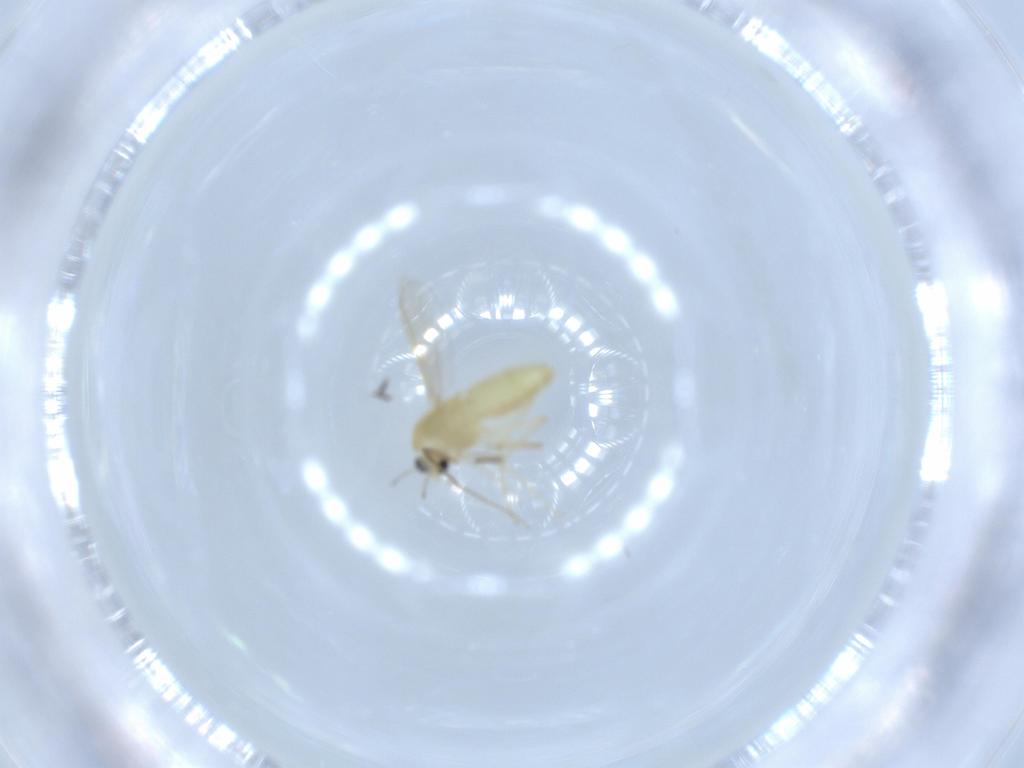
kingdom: Animalia
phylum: Arthropoda
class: Insecta
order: Diptera
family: Chironomidae
